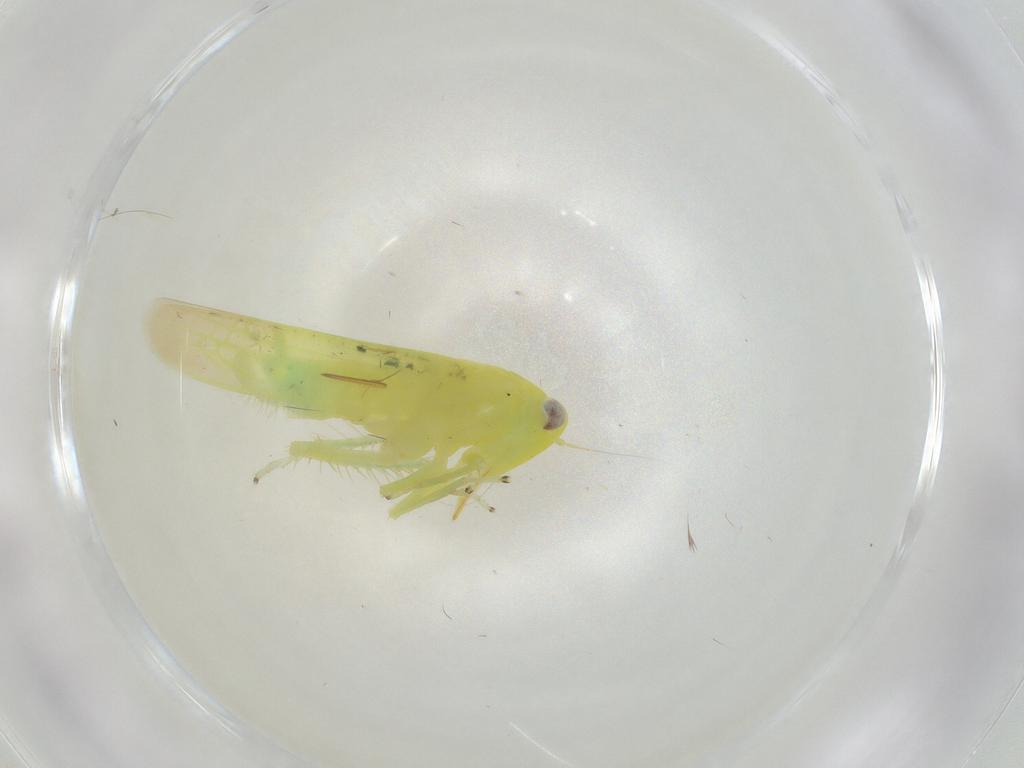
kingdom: Animalia
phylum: Arthropoda
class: Insecta
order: Hemiptera
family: Cicadellidae
